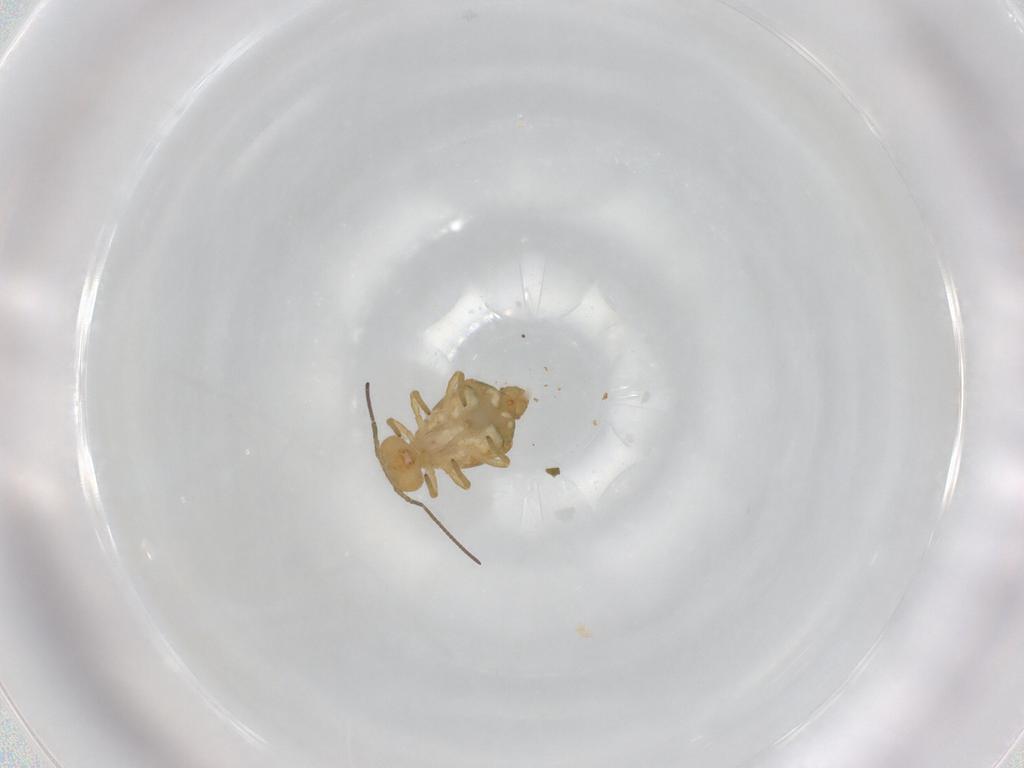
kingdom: Animalia
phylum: Arthropoda
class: Collembola
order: Symphypleona
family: Sminthuridae
